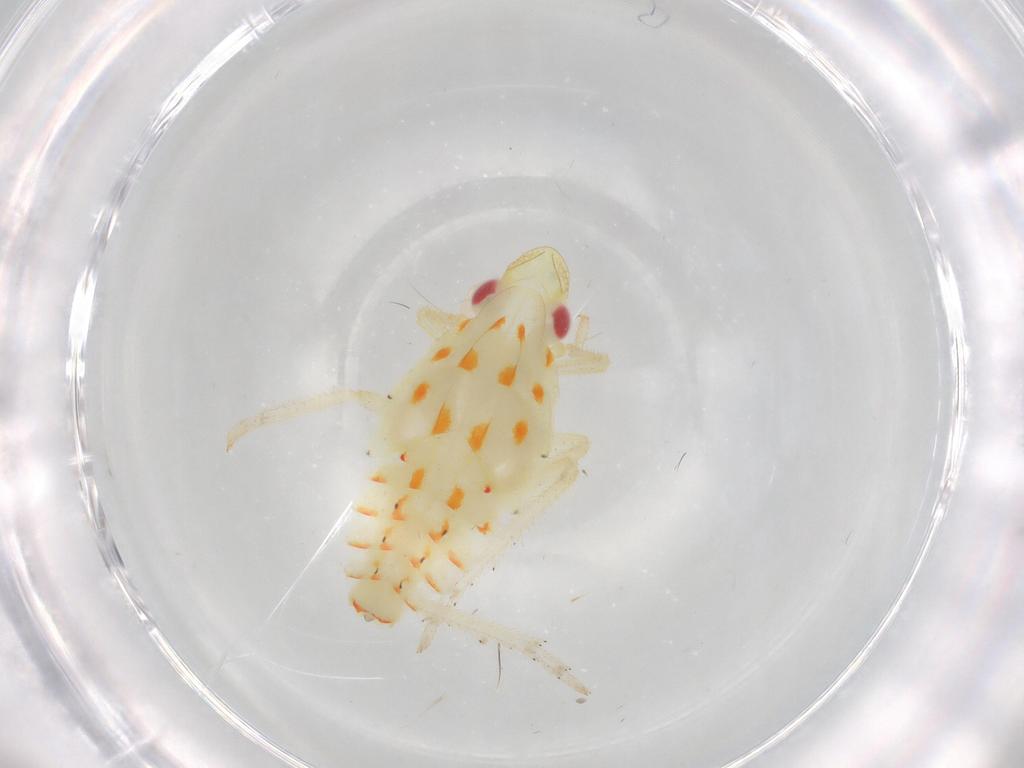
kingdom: Animalia
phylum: Arthropoda
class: Insecta
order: Hemiptera
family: Tropiduchidae
